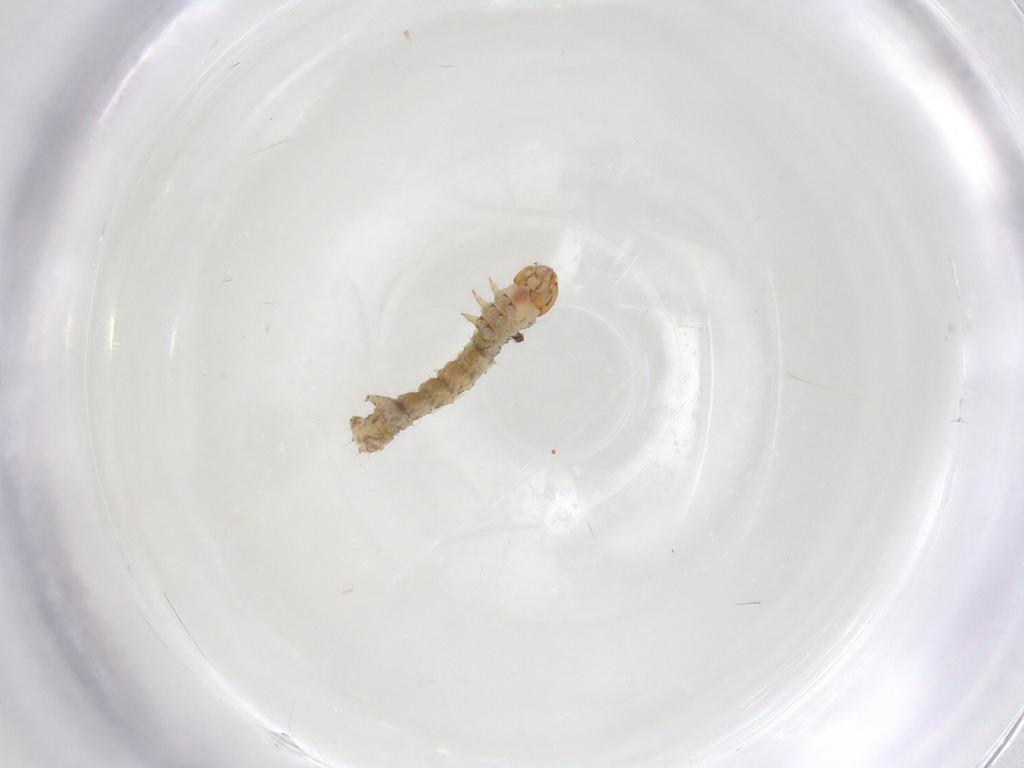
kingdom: Animalia
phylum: Arthropoda
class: Insecta
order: Lepidoptera
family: Geometridae
